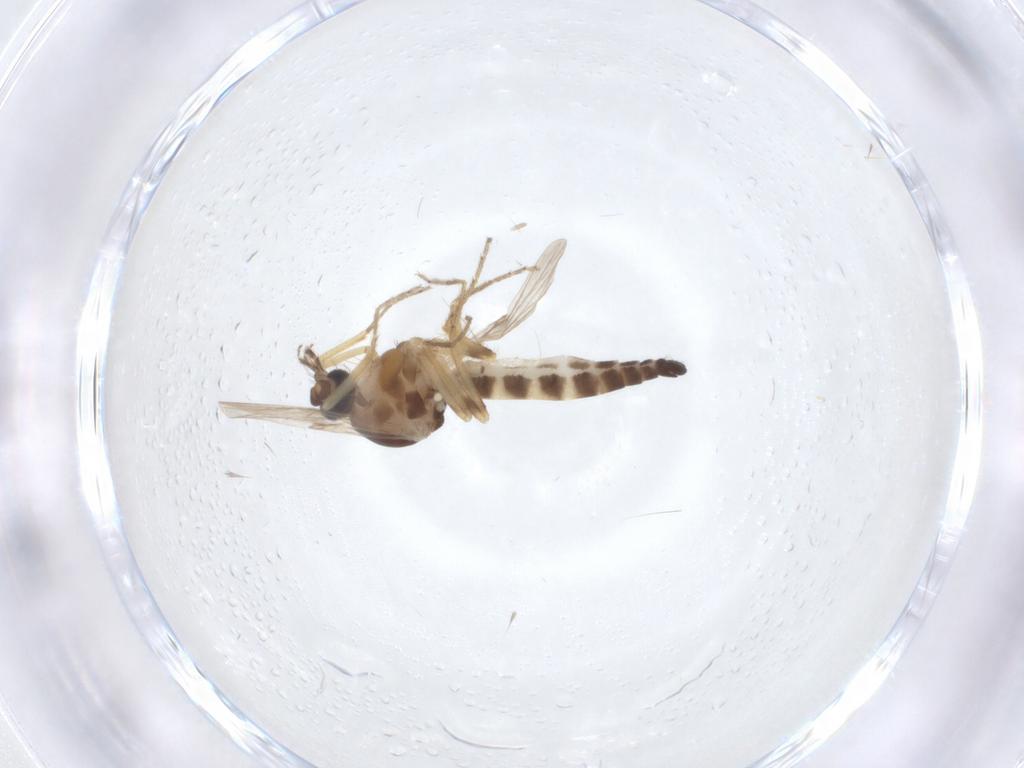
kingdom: Animalia
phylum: Arthropoda
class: Insecta
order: Diptera
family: Ceratopogonidae
